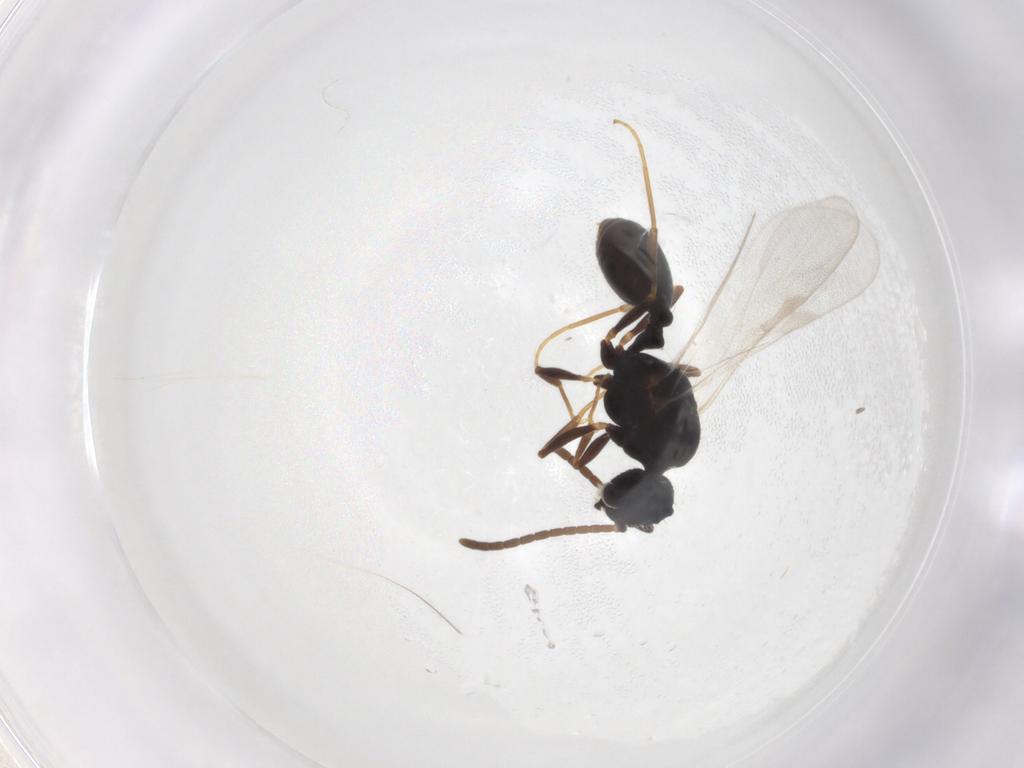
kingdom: Animalia
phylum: Arthropoda
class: Insecta
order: Hymenoptera
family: Formicidae
